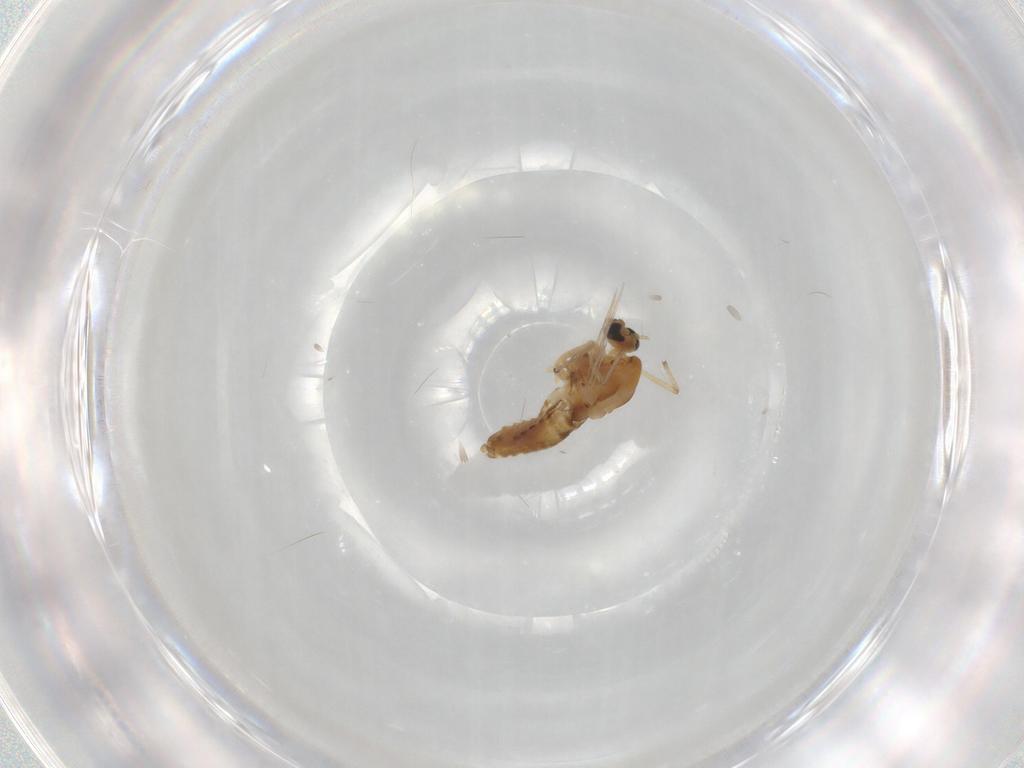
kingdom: Animalia
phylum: Arthropoda
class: Insecta
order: Diptera
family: Chironomidae
